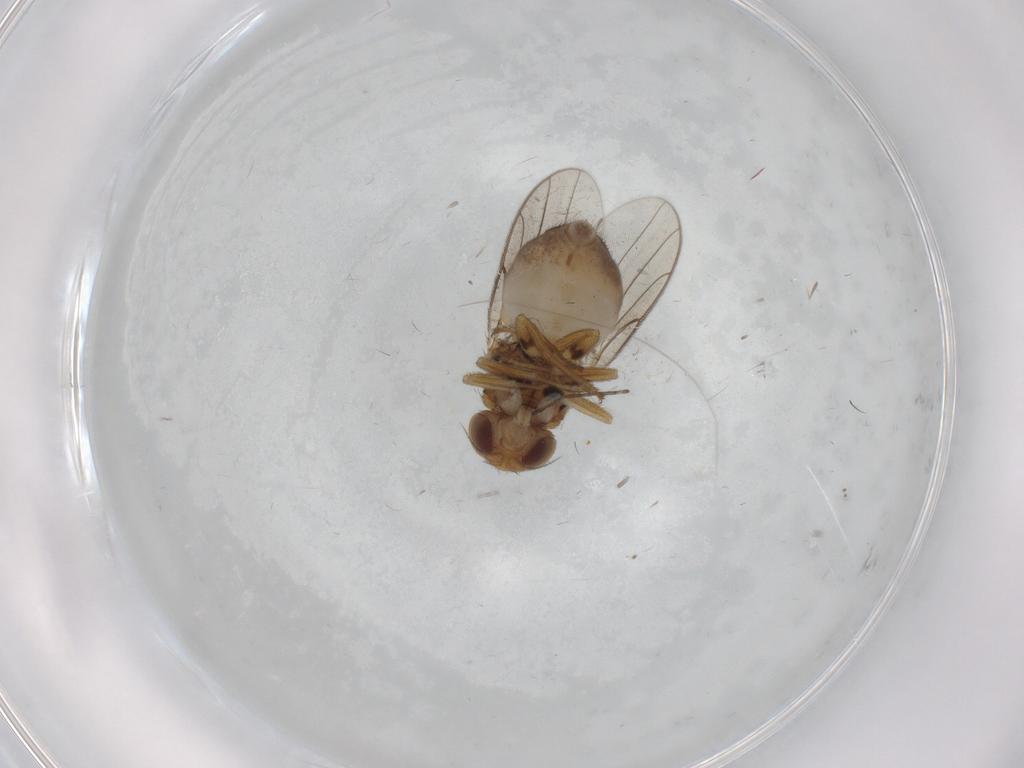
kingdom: Animalia
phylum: Arthropoda
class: Insecta
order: Diptera
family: Chloropidae
